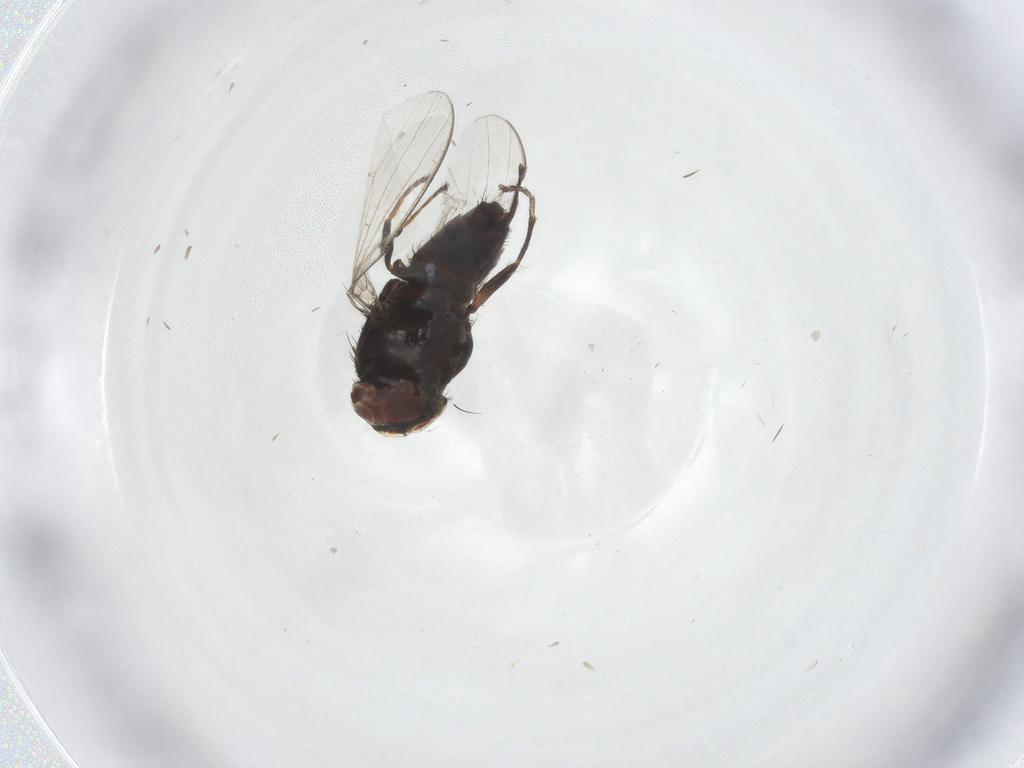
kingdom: Animalia
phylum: Arthropoda
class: Insecta
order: Diptera
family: Milichiidae
